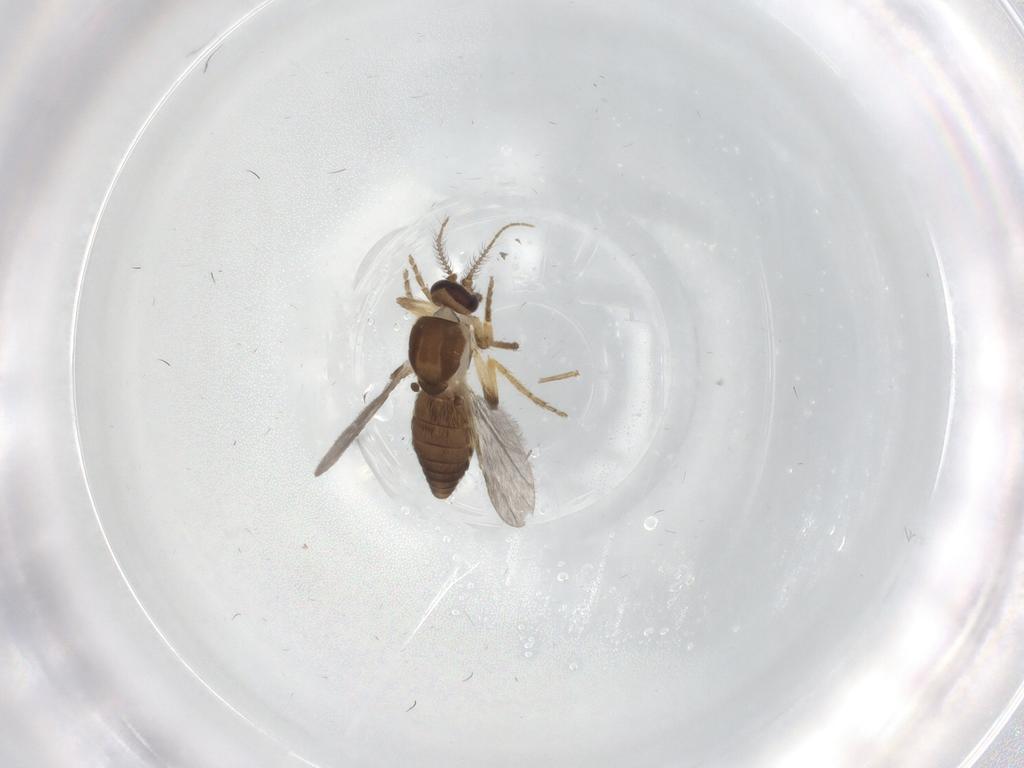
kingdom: Animalia
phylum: Arthropoda
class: Insecta
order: Diptera
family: Ceratopogonidae
